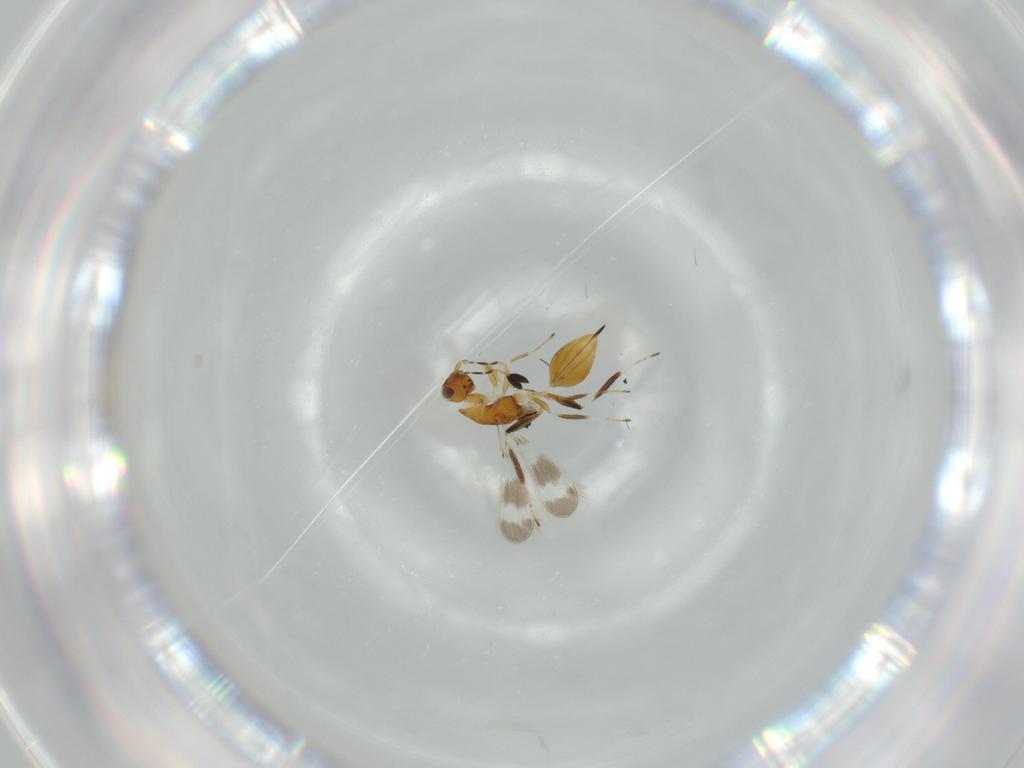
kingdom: Animalia
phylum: Arthropoda
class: Insecta
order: Hymenoptera
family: Mymaridae
